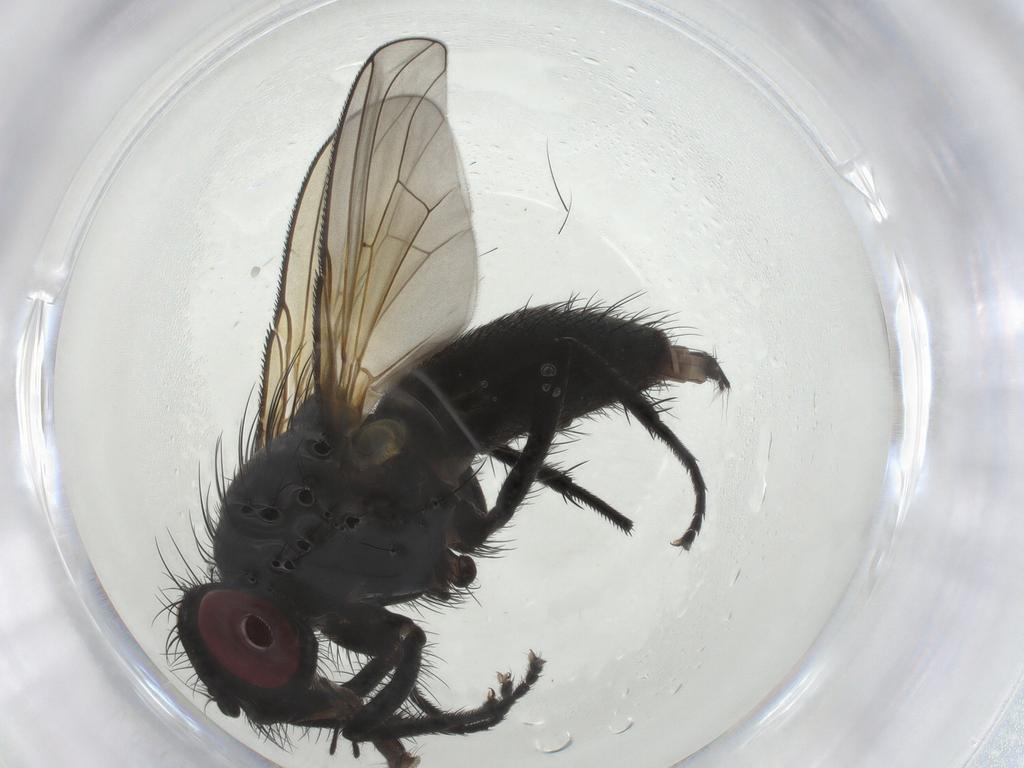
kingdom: Animalia
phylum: Arthropoda
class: Insecta
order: Diptera
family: Muscidae
